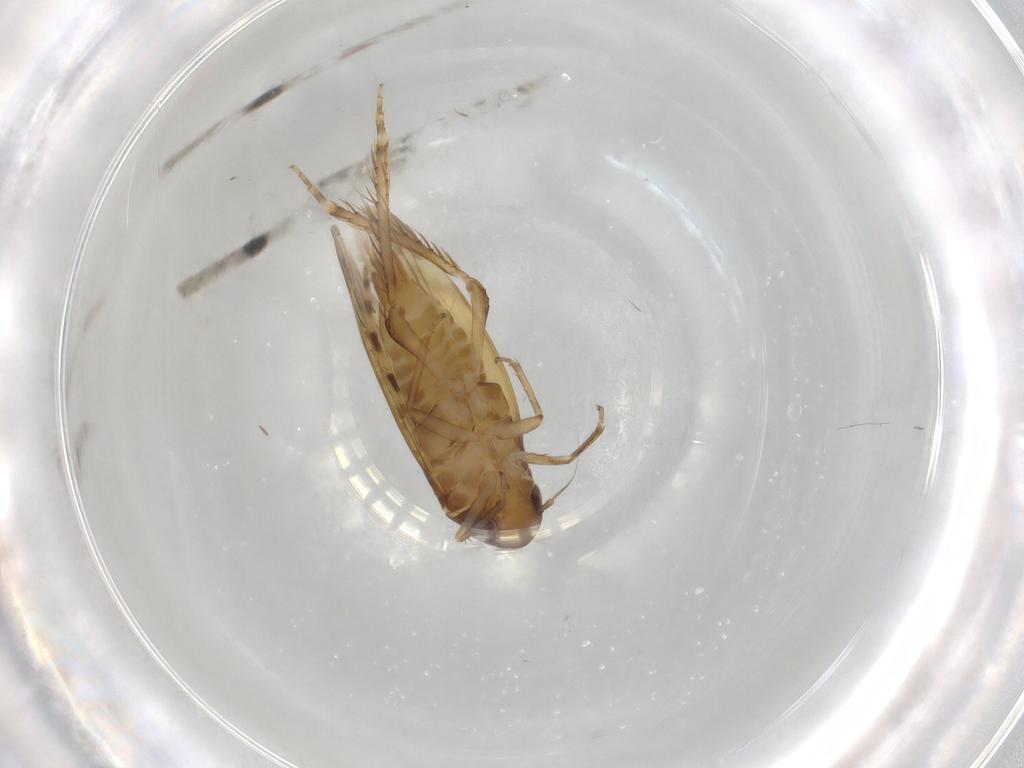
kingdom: Animalia
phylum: Arthropoda
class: Insecta
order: Hemiptera
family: Cicadellidae
